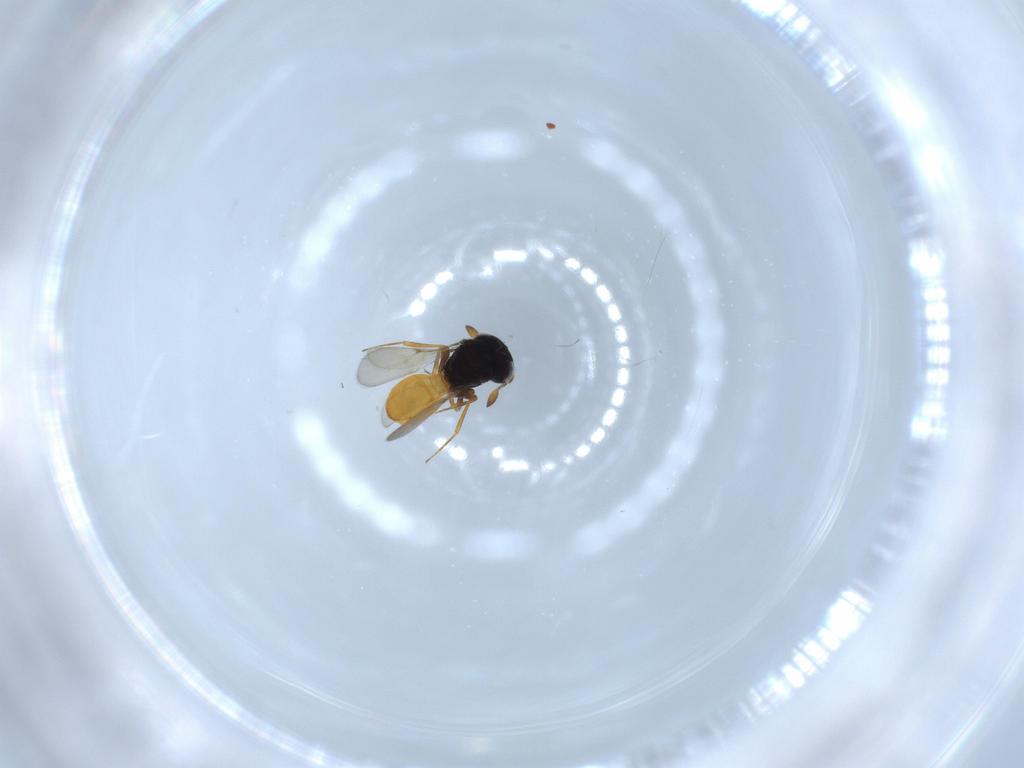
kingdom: Animalia
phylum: Arthropoda
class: Insecta
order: Hymenoptera
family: Scelionidae
